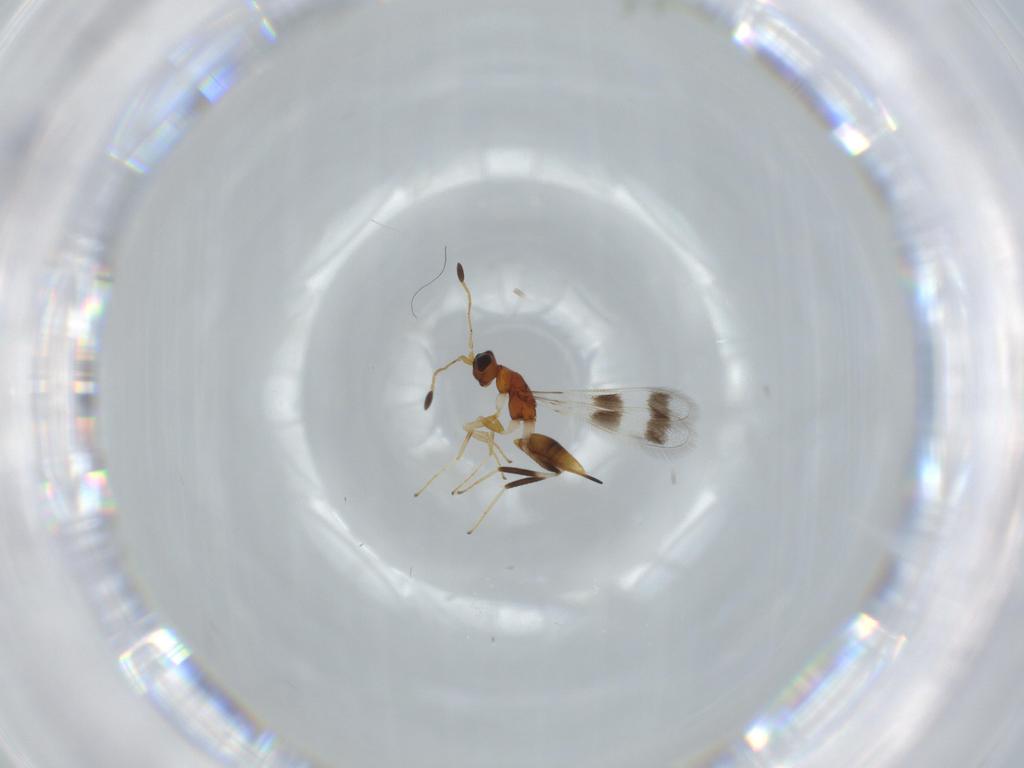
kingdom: Animalia
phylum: Arthropoda
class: Insecta
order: Hymenoptera
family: Mymaridae
